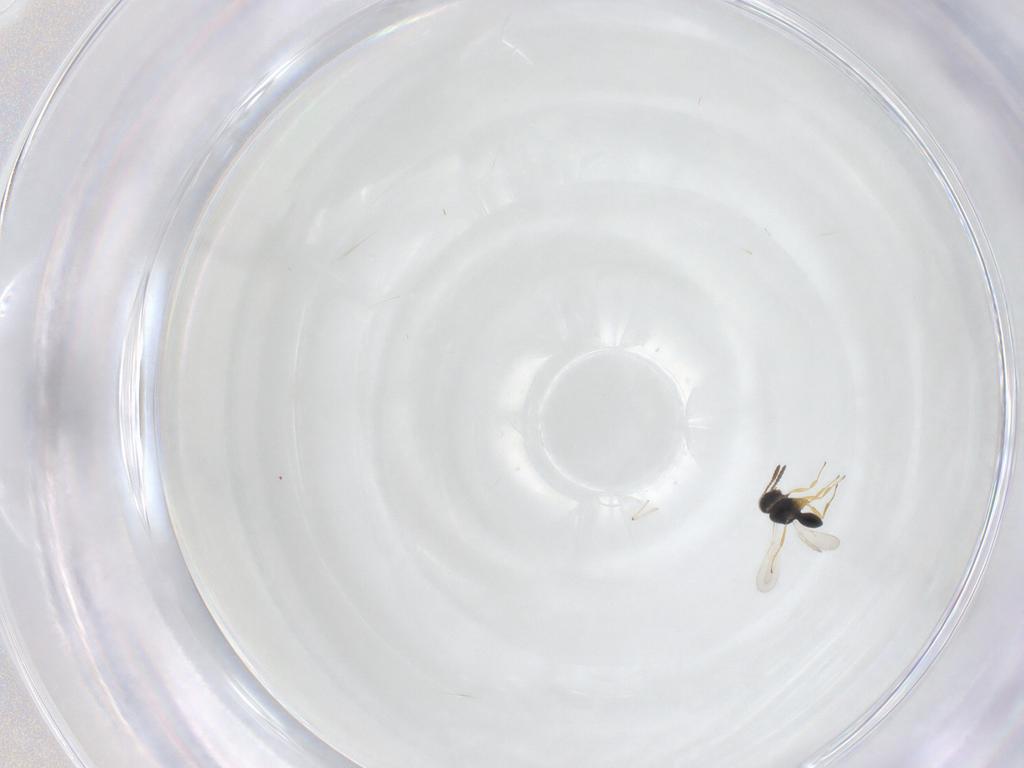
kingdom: Animalia
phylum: Arthropoda
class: Insecta
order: Hymenoptera
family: Scelionidae
